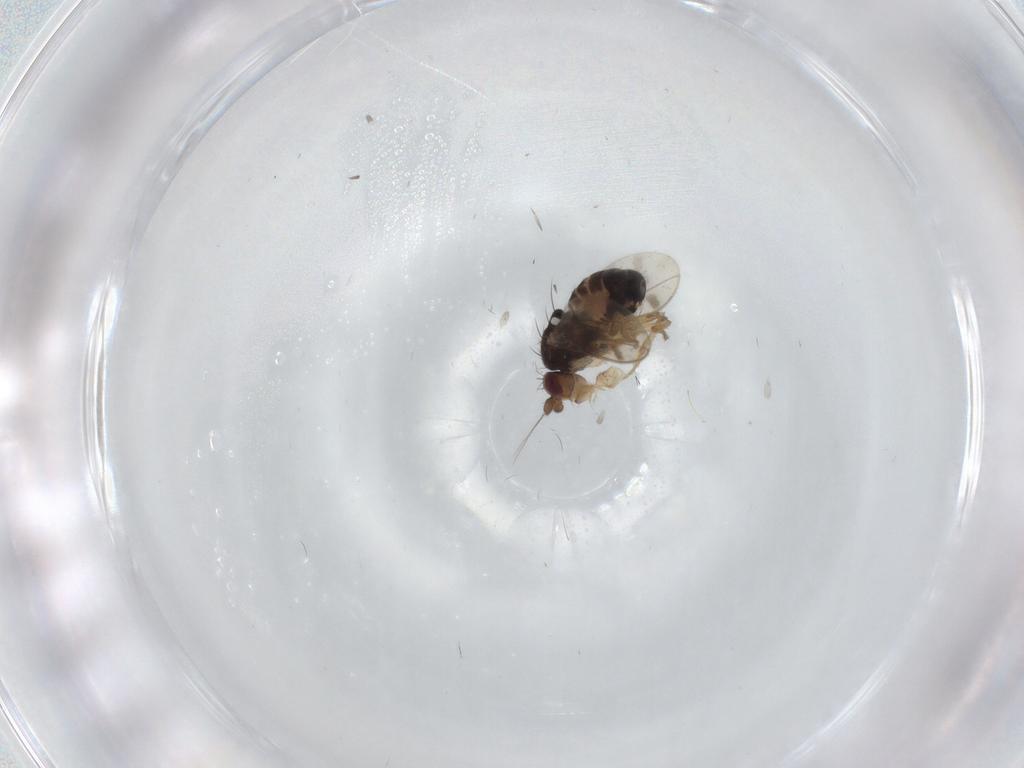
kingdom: Animalia
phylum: Arthropoda
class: Insecta
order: Diptera
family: Sphaeroceridae
